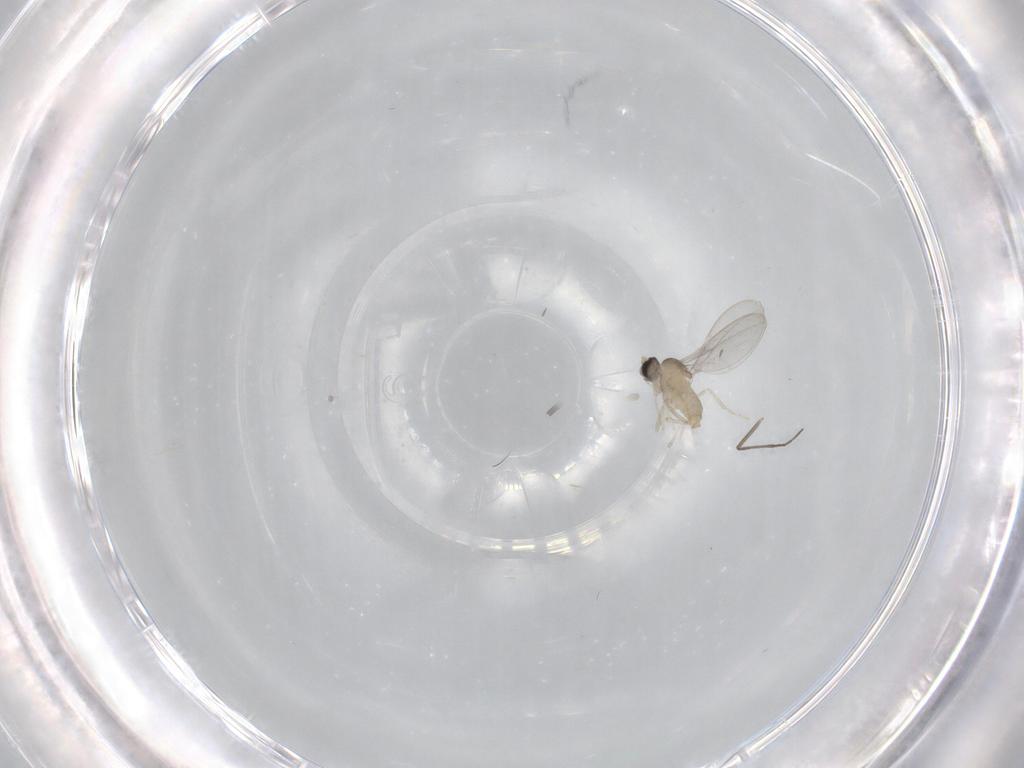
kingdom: Animalia
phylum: Arthropoda
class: Insecta
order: Diptera
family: Chironomidae
